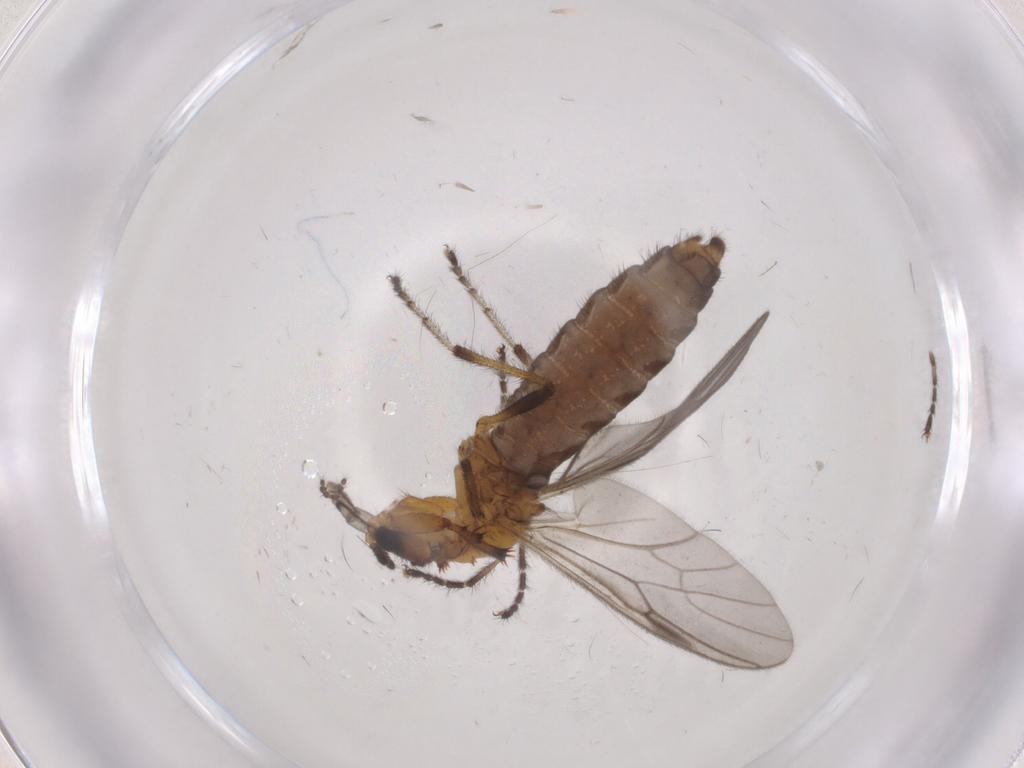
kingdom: Animalia
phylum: Arthropoda
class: Insecta
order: Diptera
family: Bibionidae
